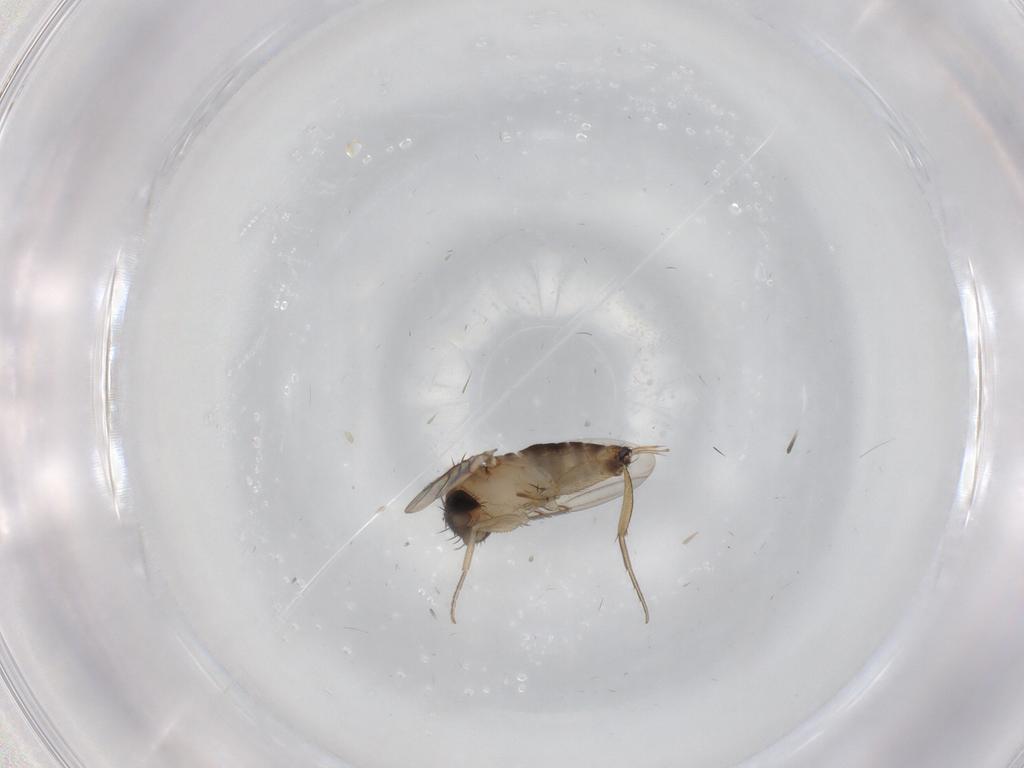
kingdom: Animalia
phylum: Arthropoda
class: Insecta
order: Diptera
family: Phoridae
